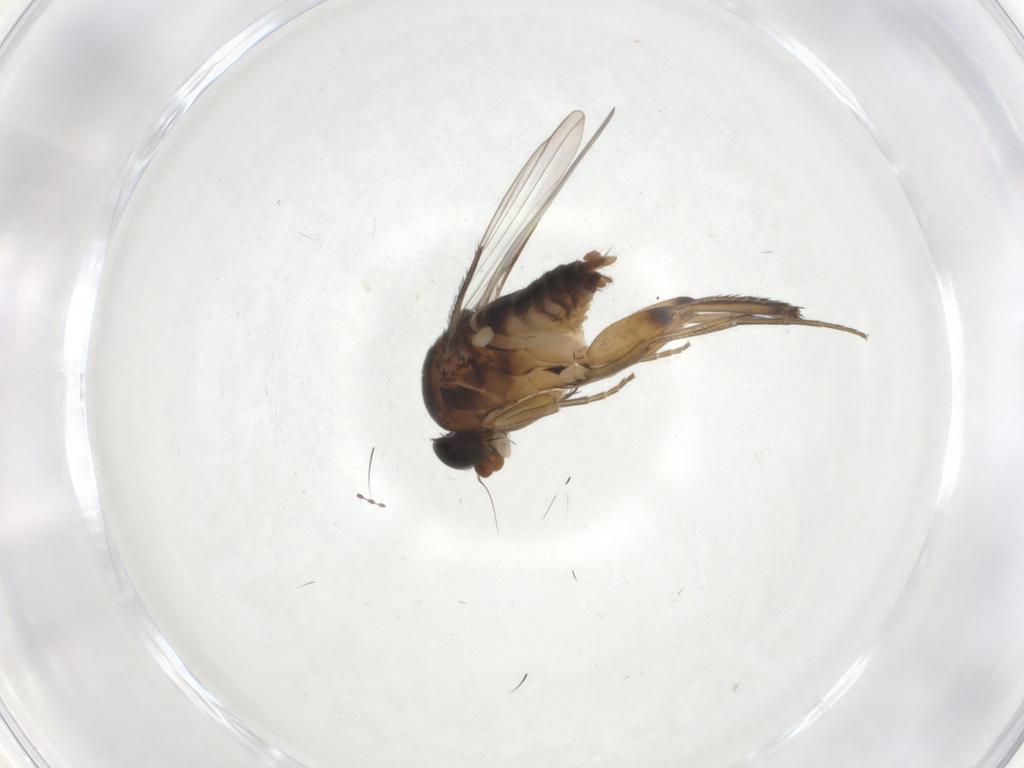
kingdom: Animalia
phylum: Arthropoda
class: Insecta
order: Diptera
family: Phoridae
